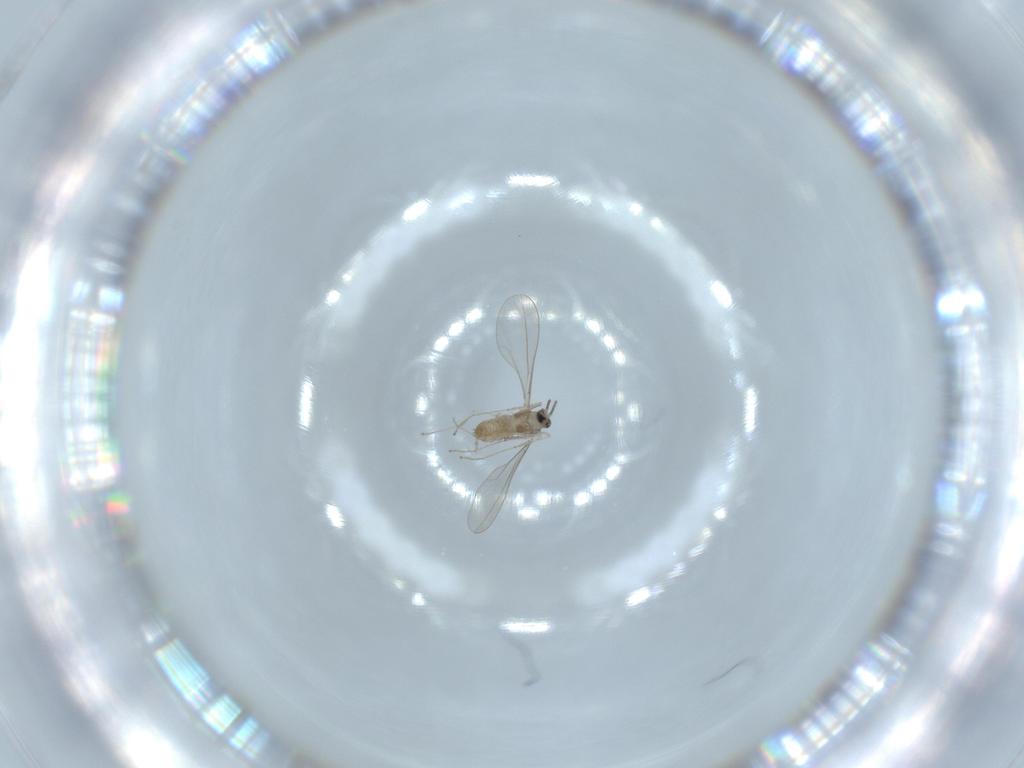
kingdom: Animalia
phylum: Arthropoda
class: Insecta
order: Diptera
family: Cecidomyiidae
